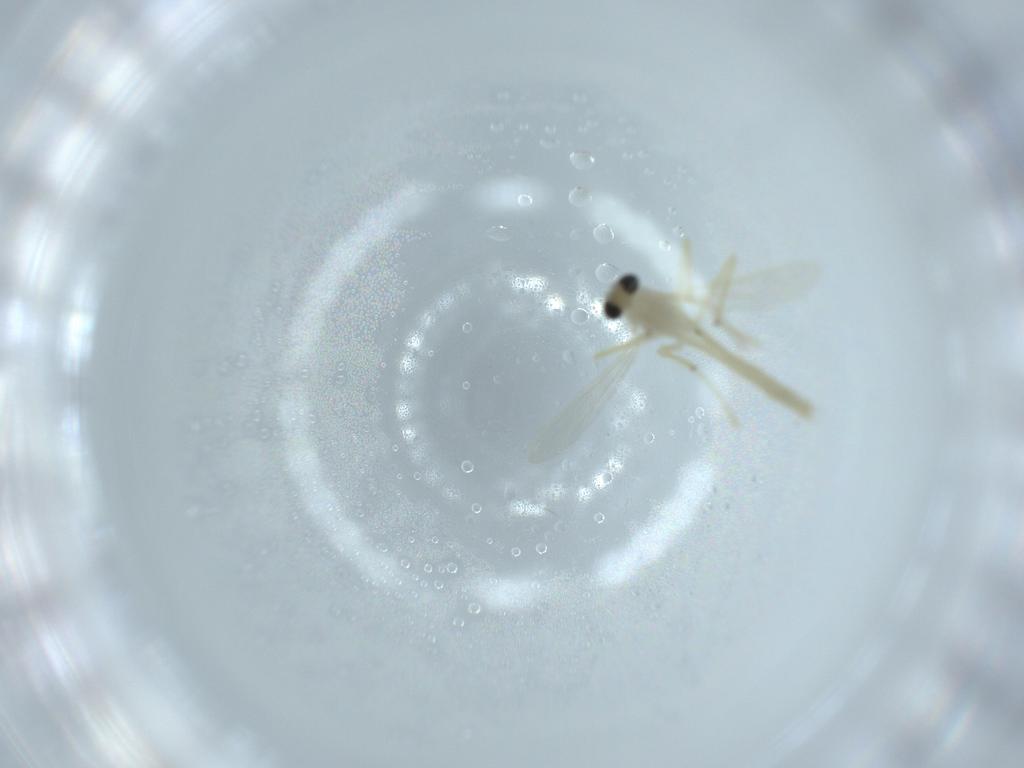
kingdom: Animalia
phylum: Arthropoda
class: Insecta
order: Diptera
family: Chironomidae
